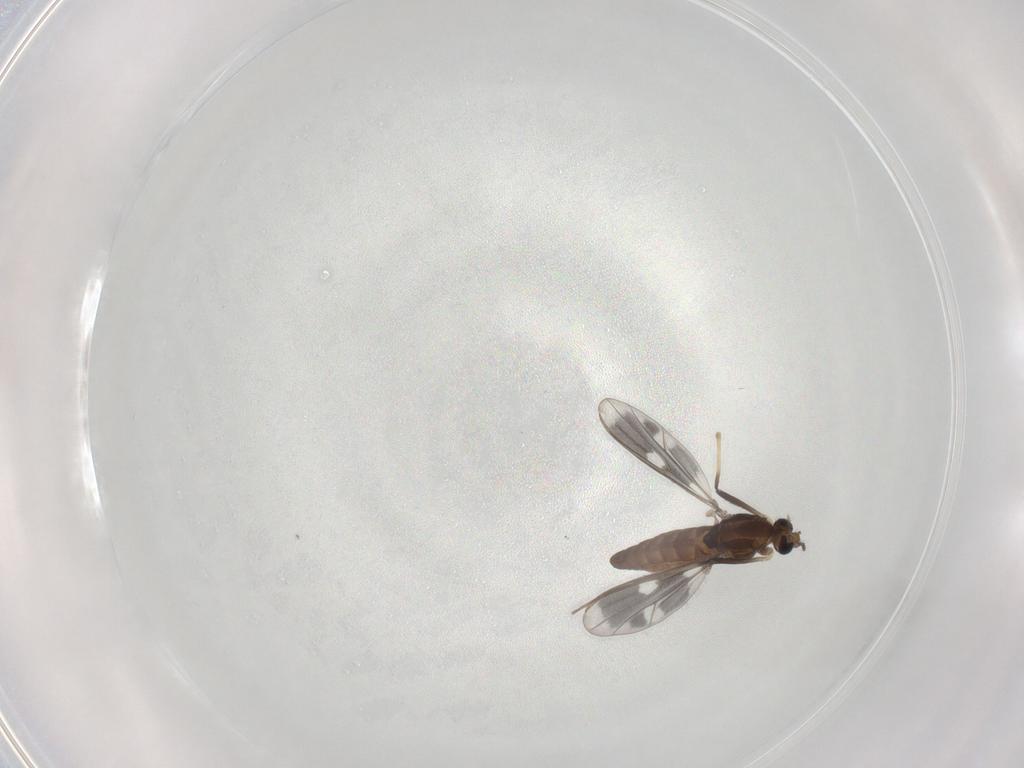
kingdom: Animalia
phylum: Arthropoda
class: Insecta
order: Diptera
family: Chironomidae
